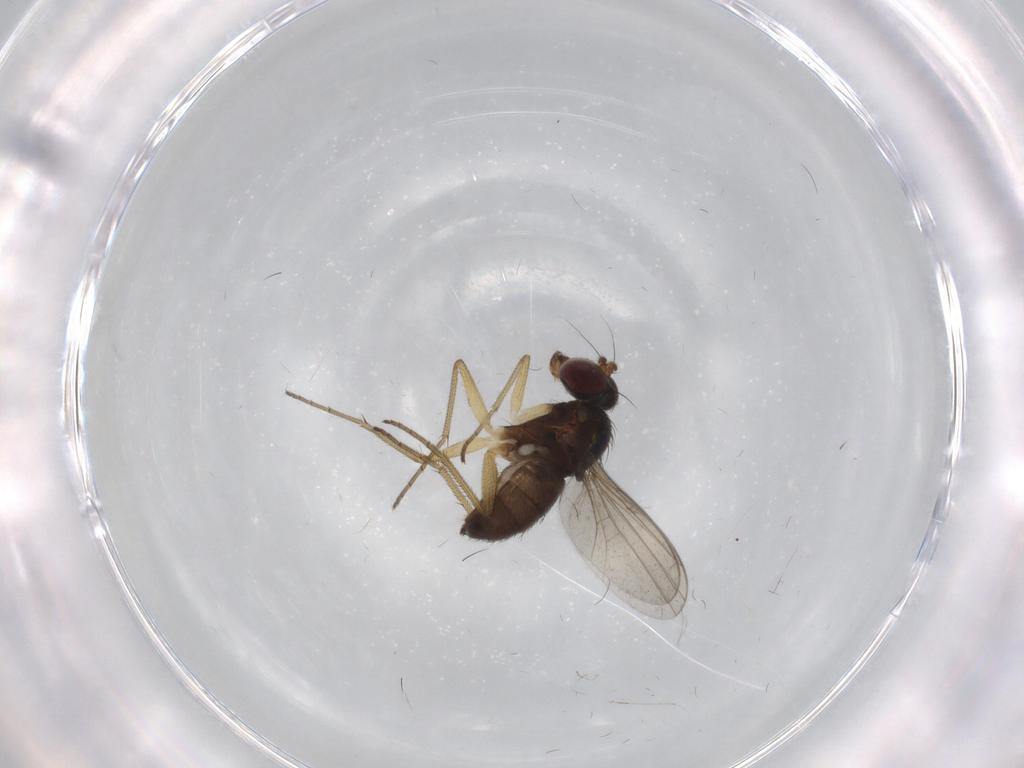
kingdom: Animalia
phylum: Arthropoda
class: Insecta
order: Diptera
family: Dolichopodidae
